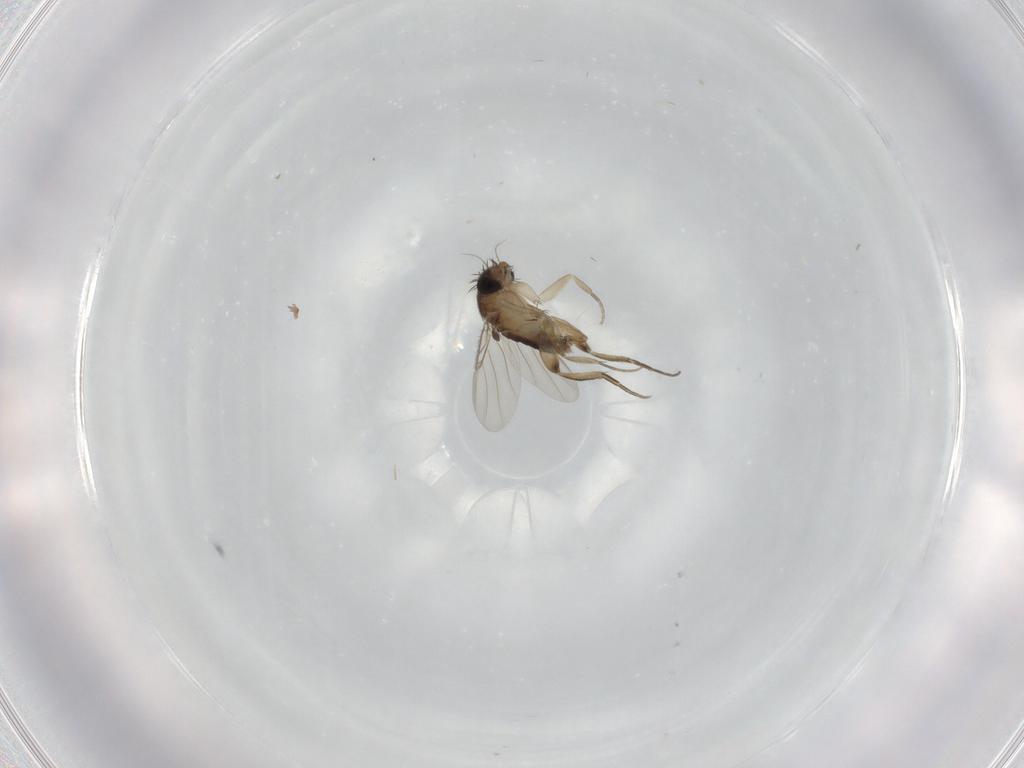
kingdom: Animalia
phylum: Arthropoda
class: Insecta
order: Diptera
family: Phoridae
